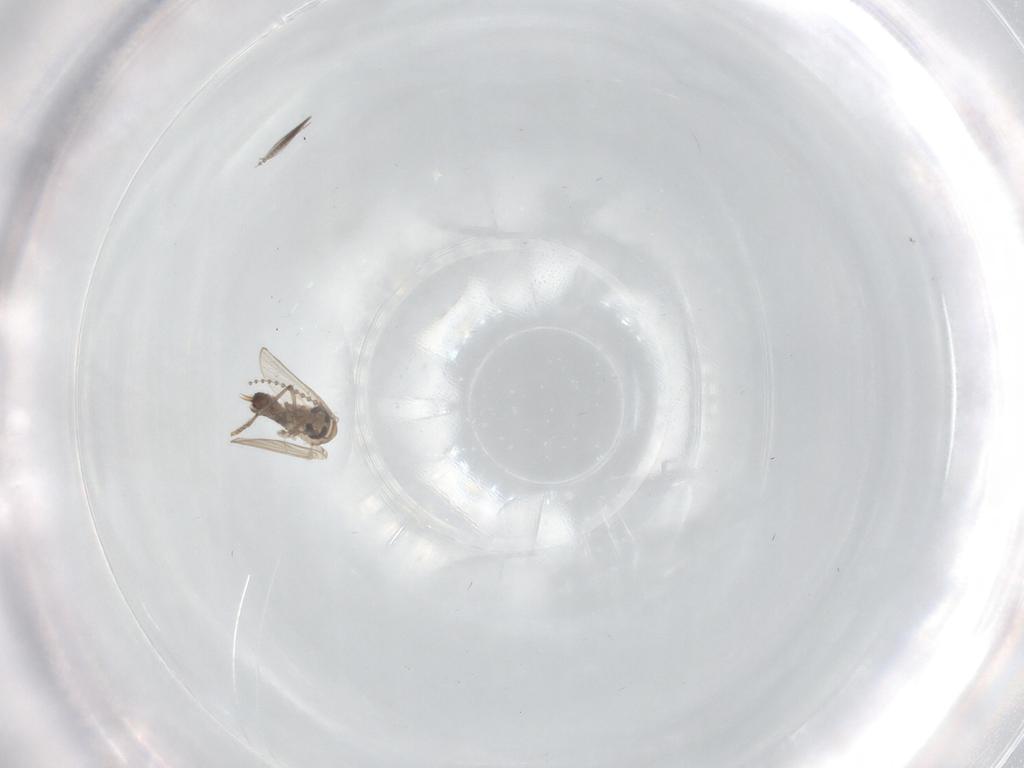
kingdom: Animalia
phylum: Arthropoda
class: Insecta
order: Diptera
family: Psychodidae
